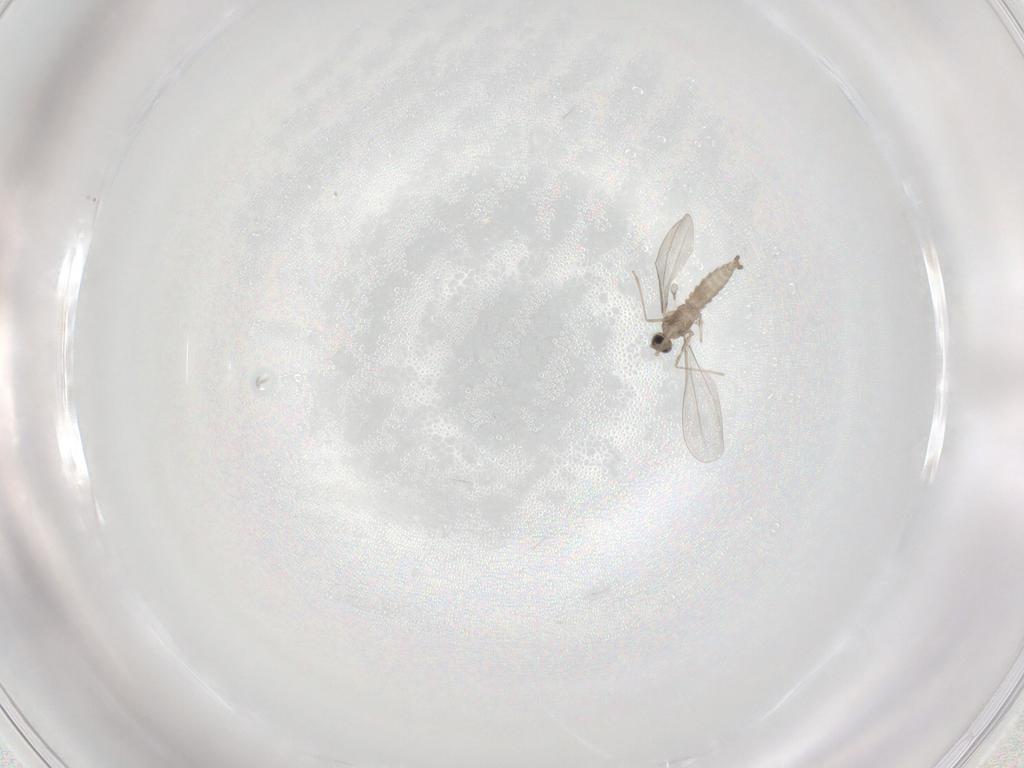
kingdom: Animalia
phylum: Arthropoda
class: Insecta
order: Diptera
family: Cecidomyiidae
